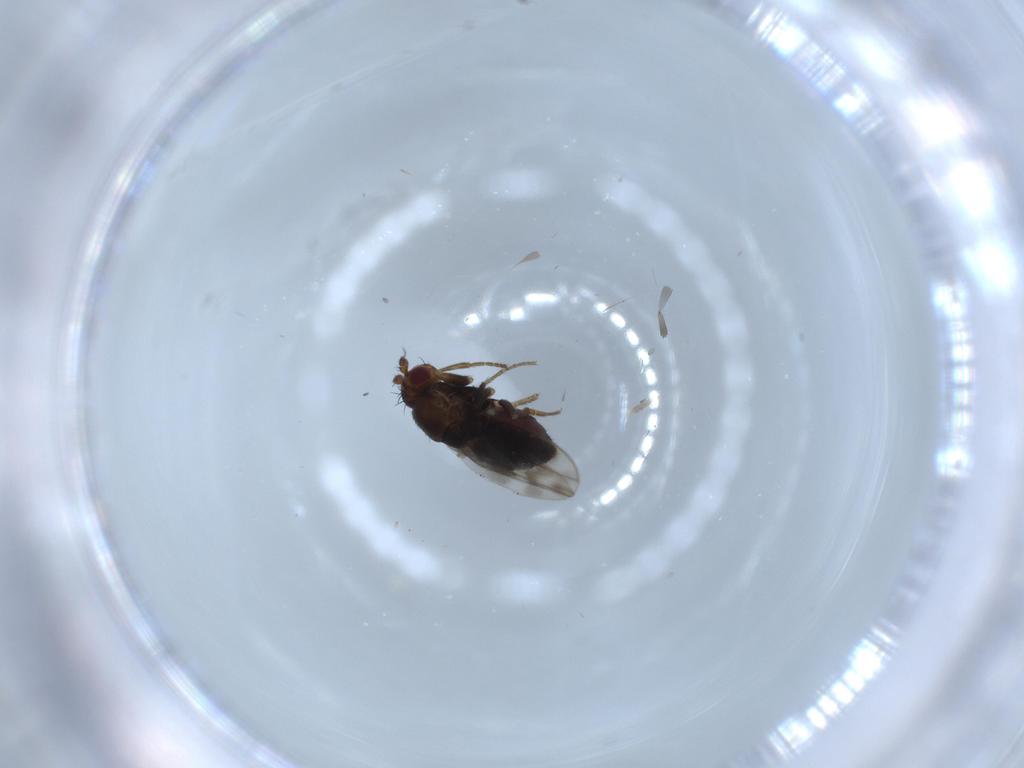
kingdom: Animalia
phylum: Arthropoda
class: Insecta
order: Diptera
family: Sphaeroceridae
